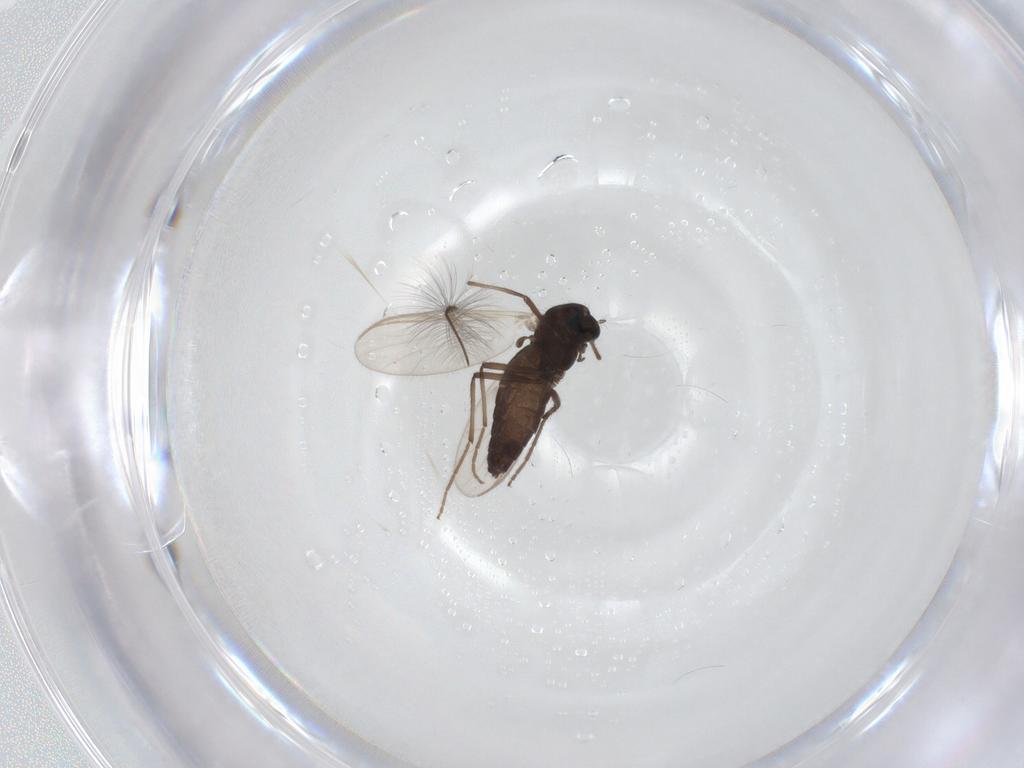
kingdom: Animalia
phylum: Arthropoda
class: Insecta
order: Diptera
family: Chironomidae
